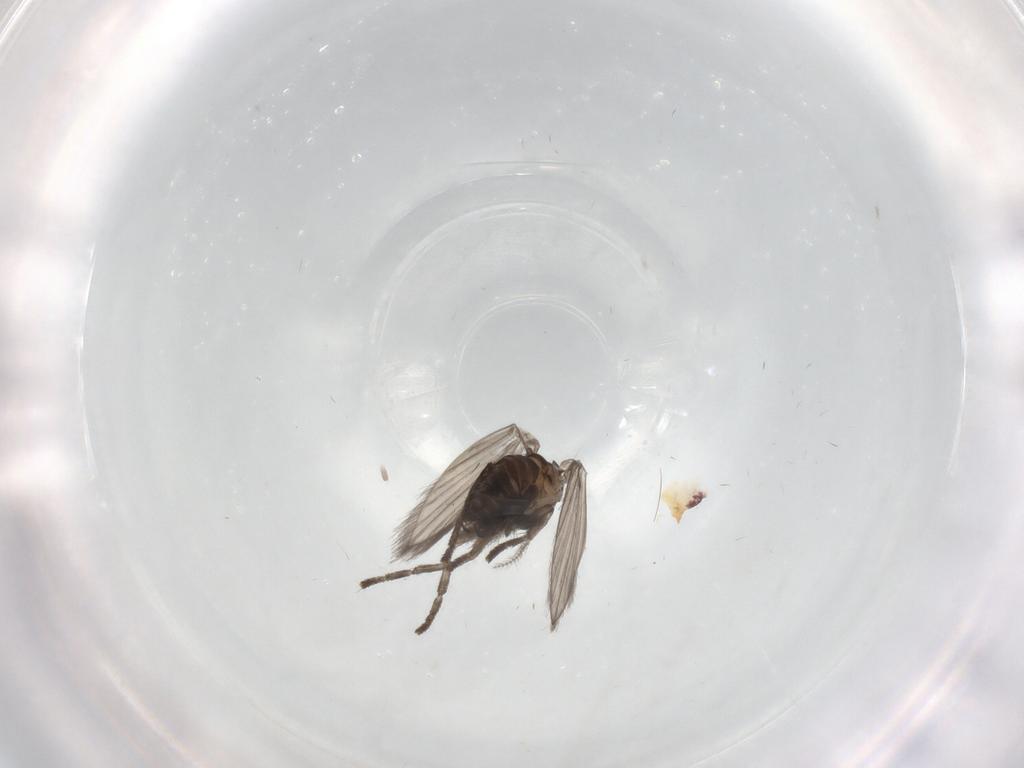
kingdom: Animalia
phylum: Arthropoda
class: Insecta
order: Diptera
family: Psychodidae
